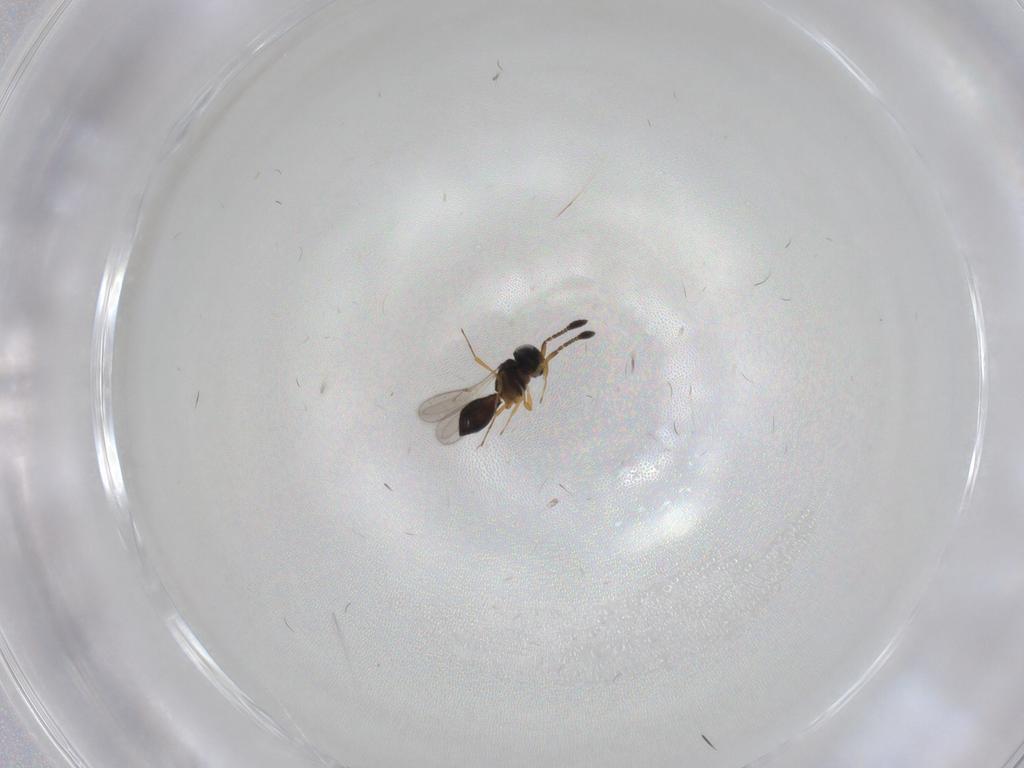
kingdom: Animalia
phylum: Arthropoda
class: Insecta
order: Hymenoptera
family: Scelionidae
